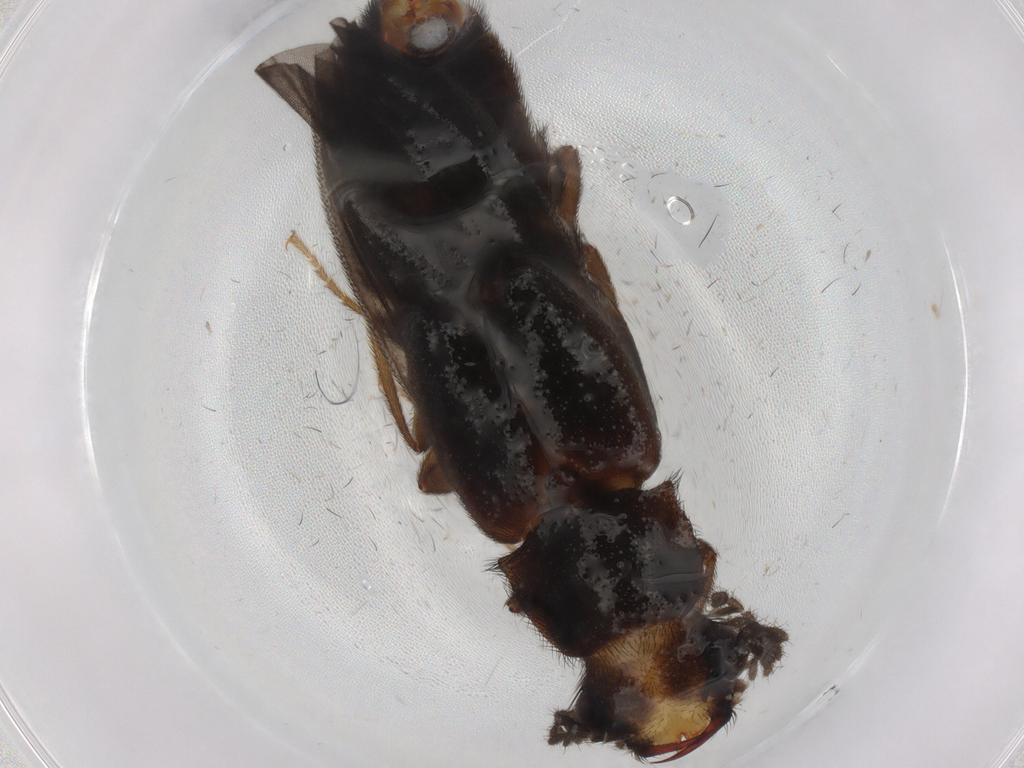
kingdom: Animalia
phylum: Arthropoda
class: Insecta
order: Coleoptera
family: Phengodidae
